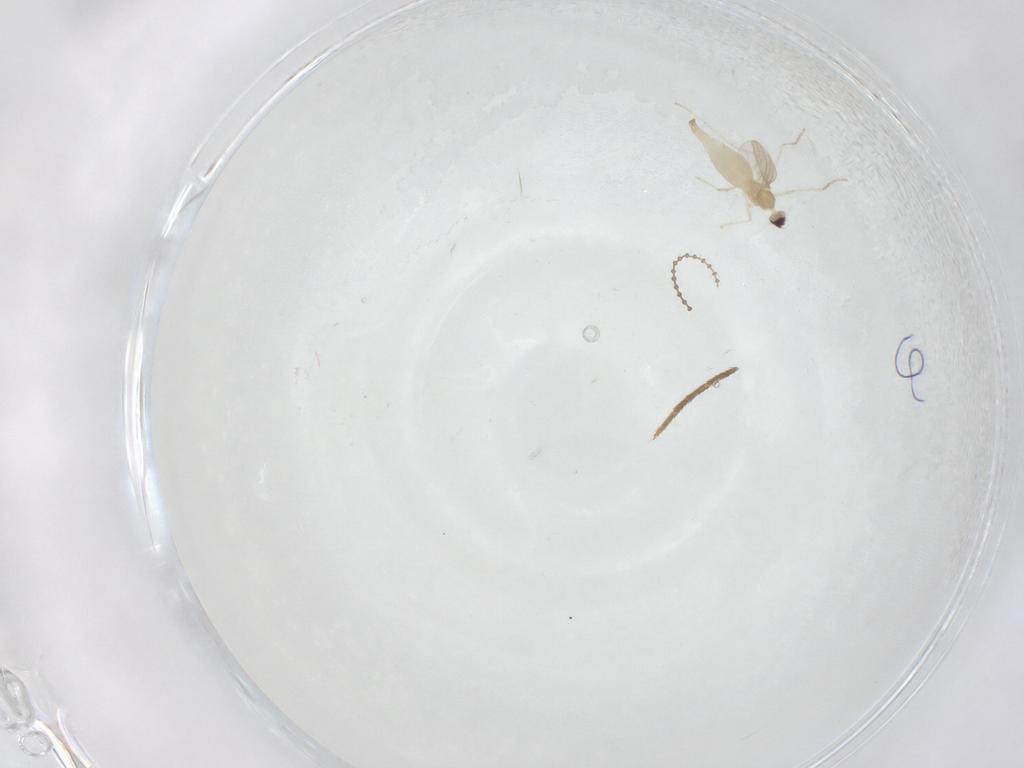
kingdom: Animalia
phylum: Arthropoda
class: Insecta
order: Diptera
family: Cecidomyiidae
